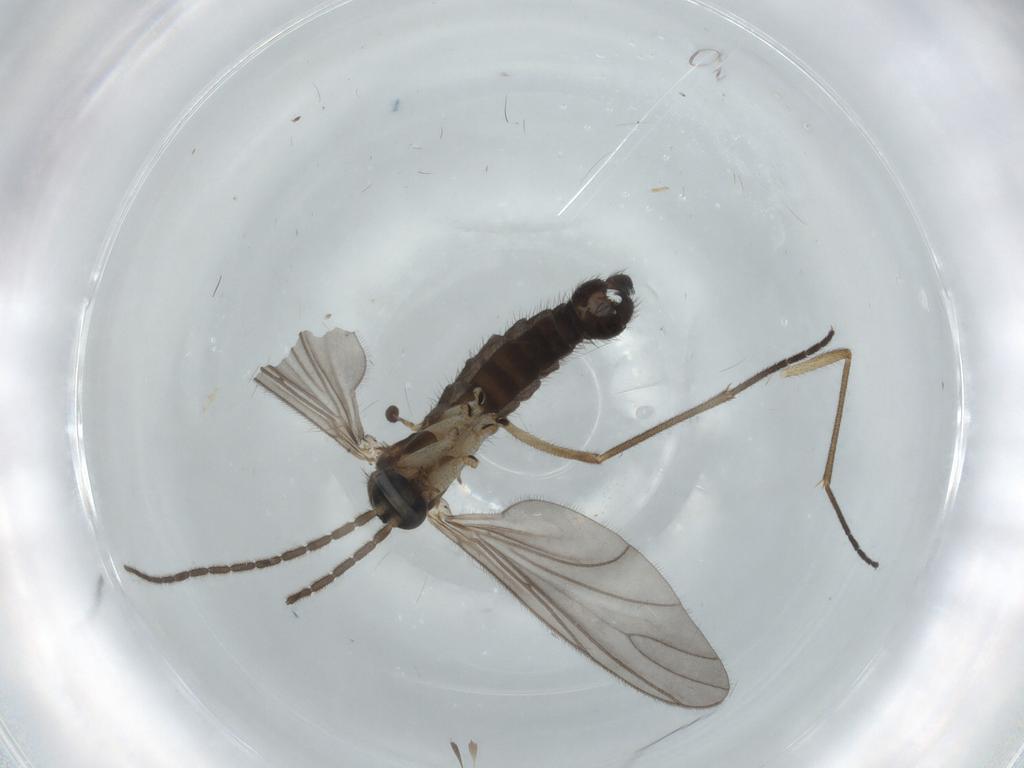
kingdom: Animalia
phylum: Arthropoda
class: Insecta
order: Diptera
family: Sciaridae
